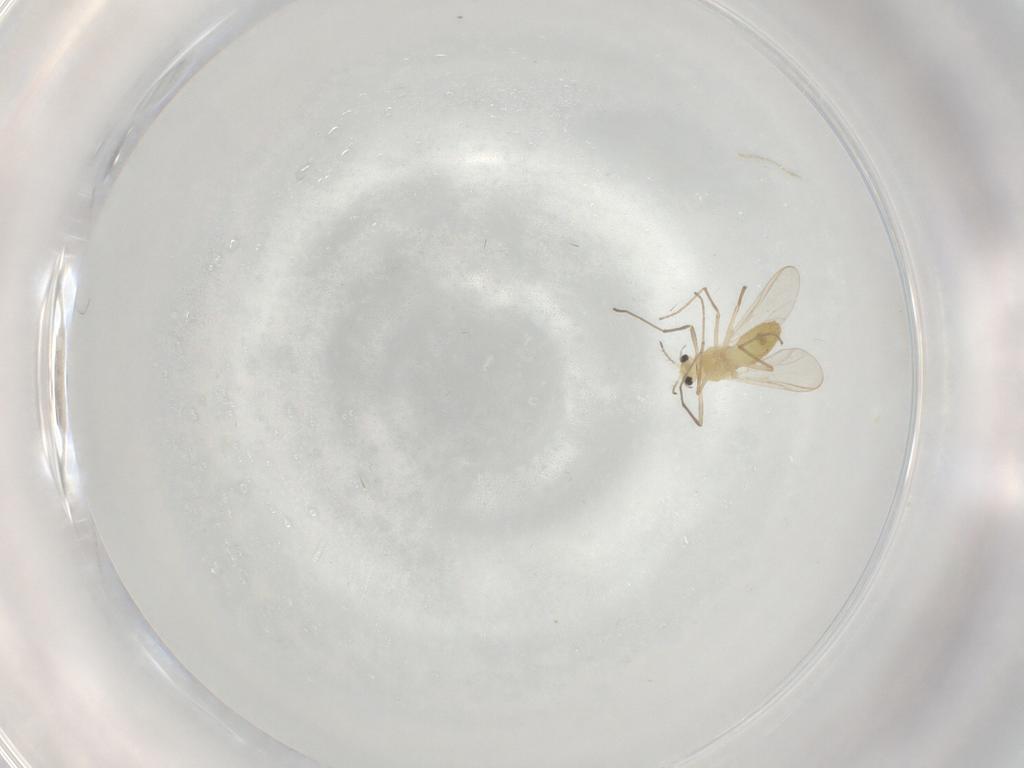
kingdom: Animalia
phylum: Arthropoda
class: Insecta
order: Diptera
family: Chironomidae
